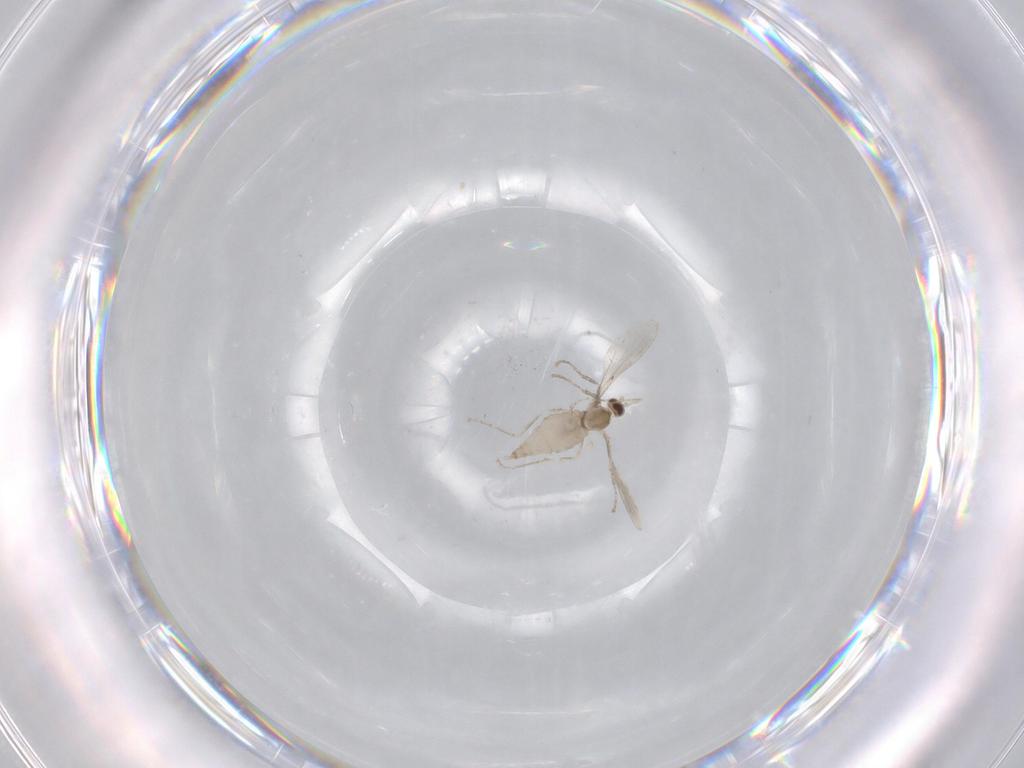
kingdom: Animalia
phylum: Arthropoda
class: Insecta
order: Diptera
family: Cecidomyiidae
